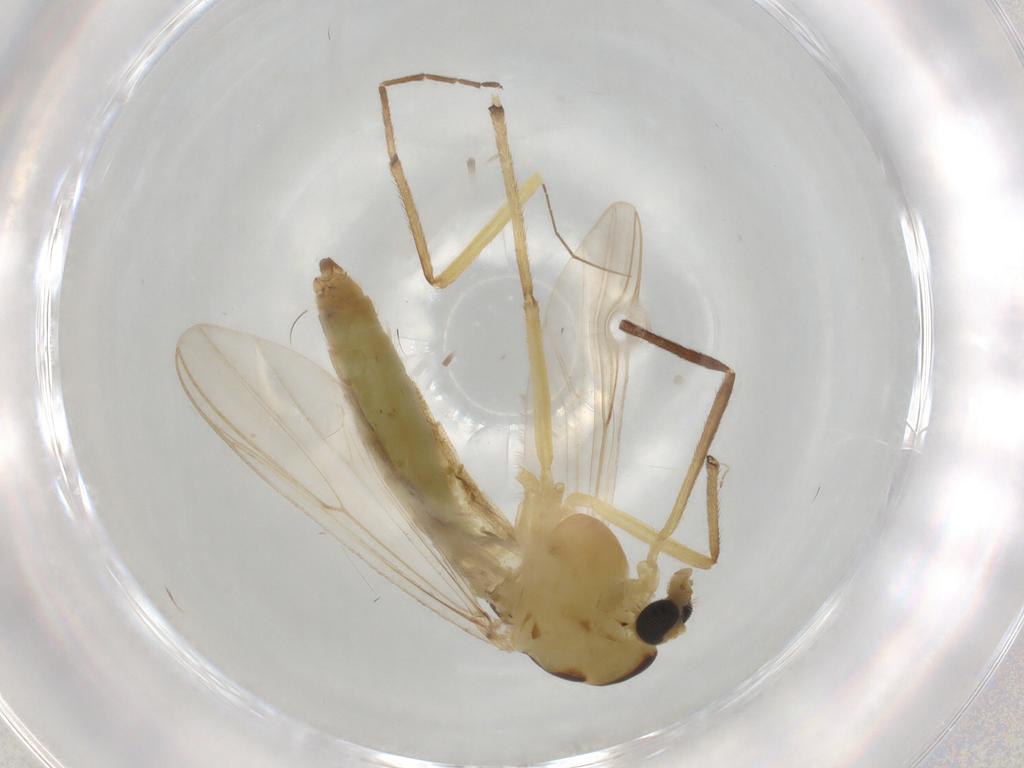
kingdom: Animalia
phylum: Arthropoda
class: Insecta
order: Diptera
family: Chironomidae
